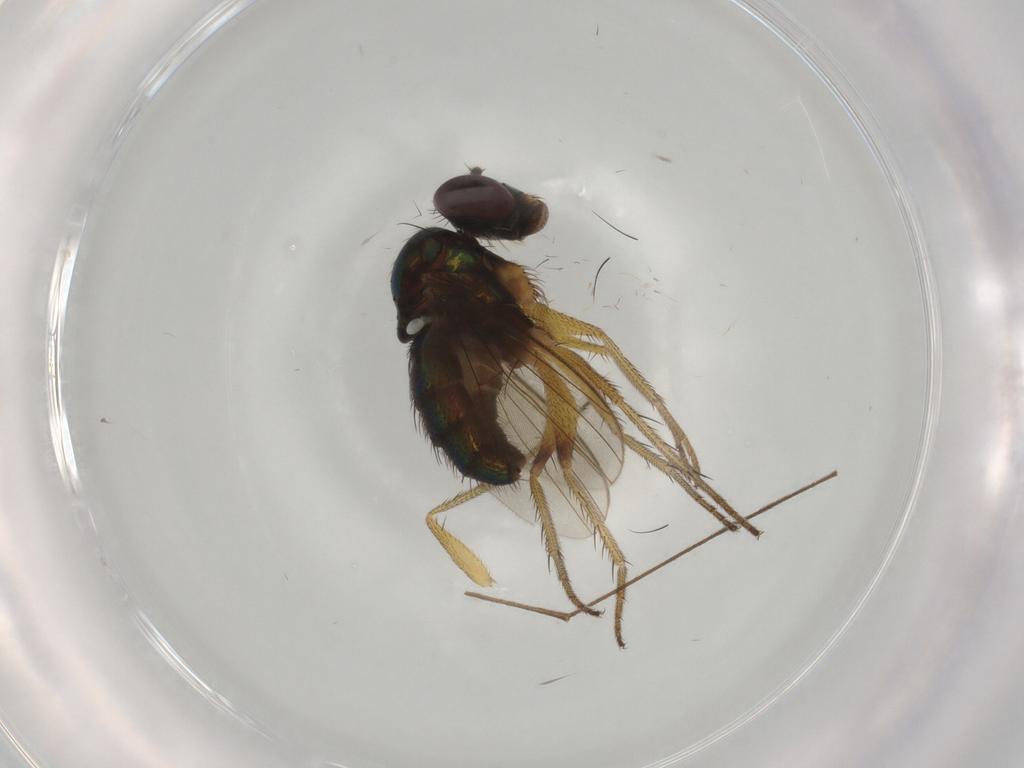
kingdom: Animalia
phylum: Arthropoda
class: Insecta
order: Diptera
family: Dolichopodidae
